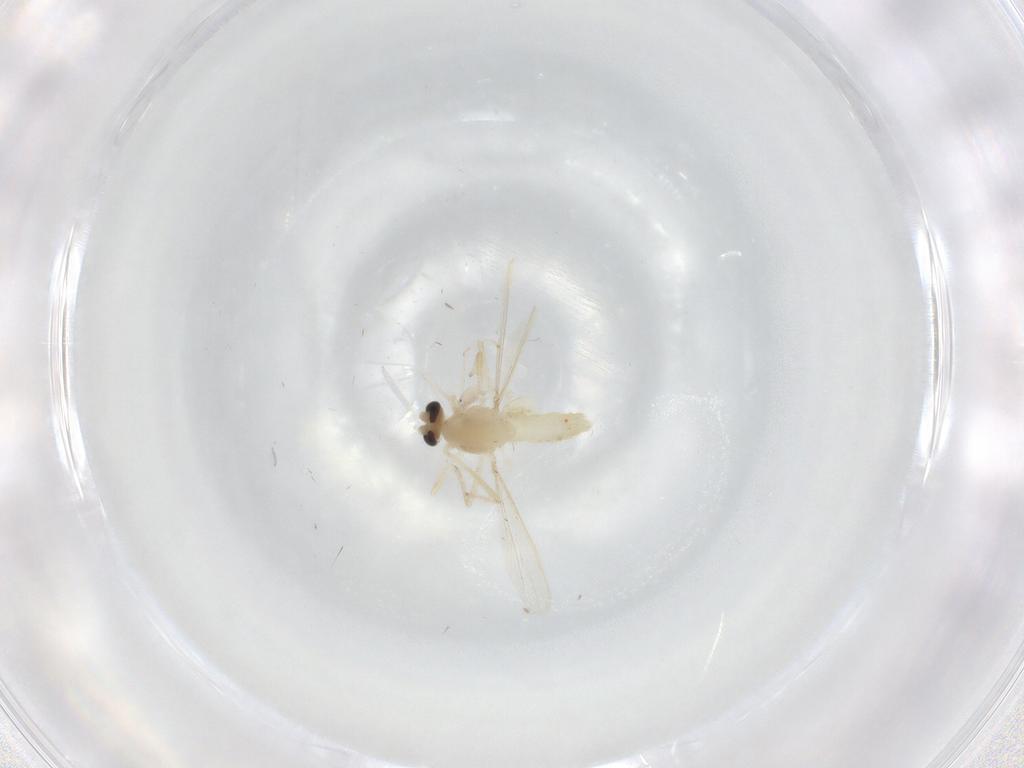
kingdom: Animalia
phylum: Arthropoda
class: Insecta
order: Diptera
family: Chironomidae
